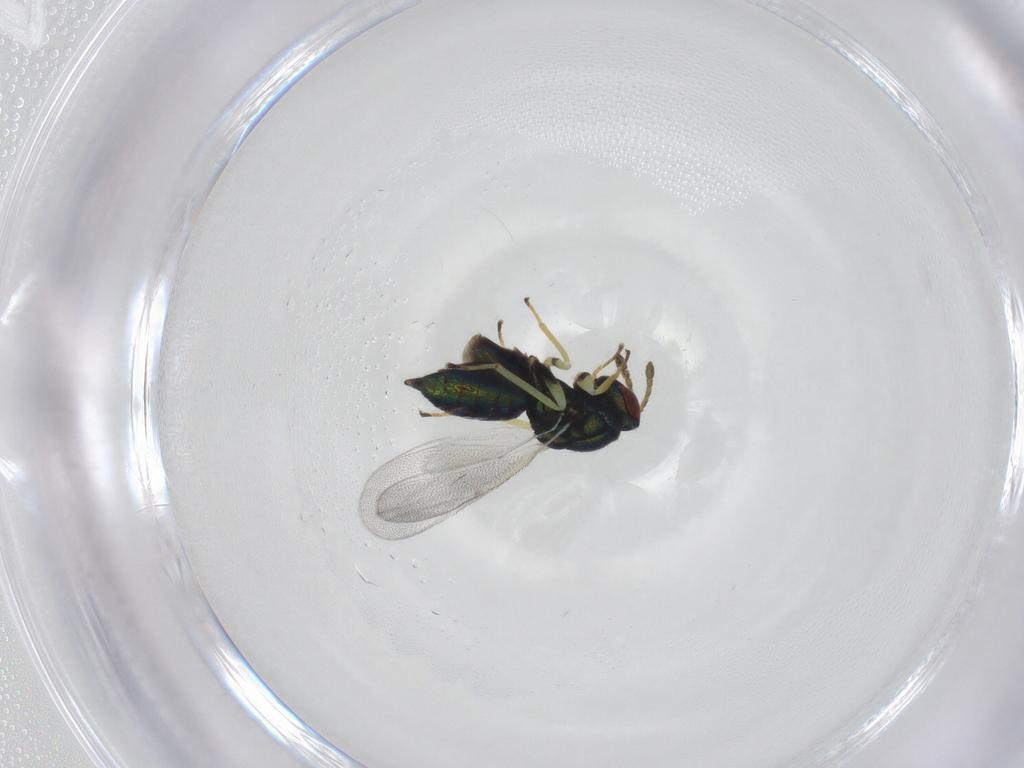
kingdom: Animalia
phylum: Arthropoda
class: Insecta
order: Hymenoptera
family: Eulophidae
